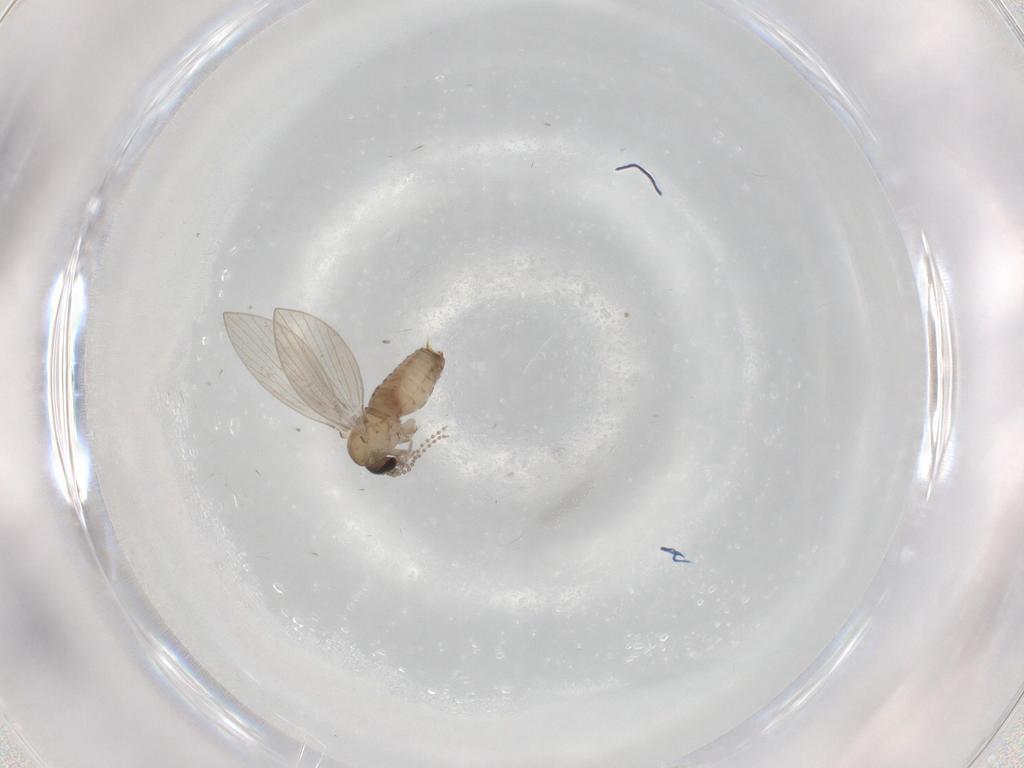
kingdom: Animalia
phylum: Arthropoda
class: Insecta
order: Diptera
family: Psychodidae
